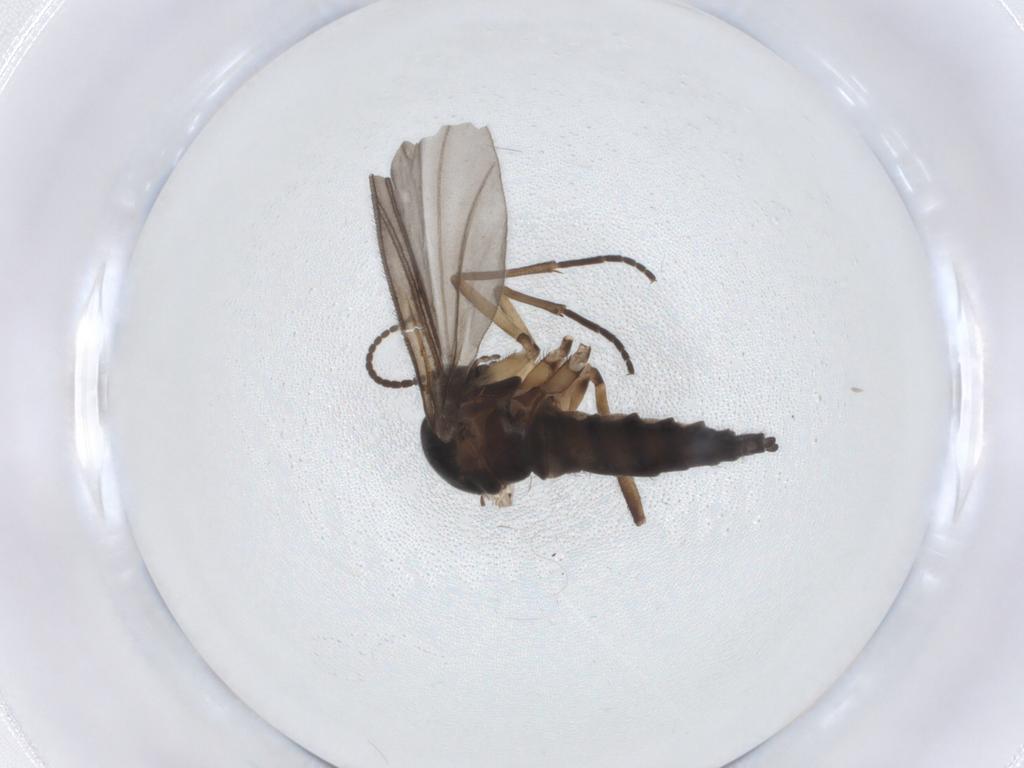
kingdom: Animalia
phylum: Arthropoda
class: Insecta
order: Diptera
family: Sciaridae
